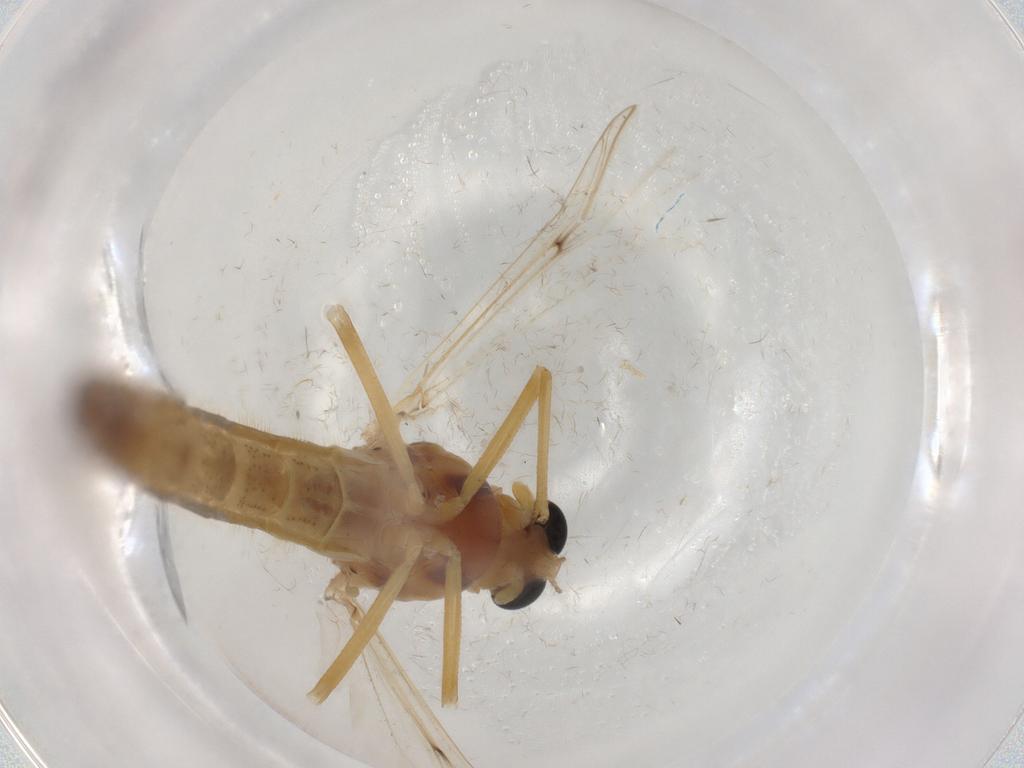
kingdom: Animalia
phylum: Arthropoda
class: Insecta
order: Diptera
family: Chironomidae
